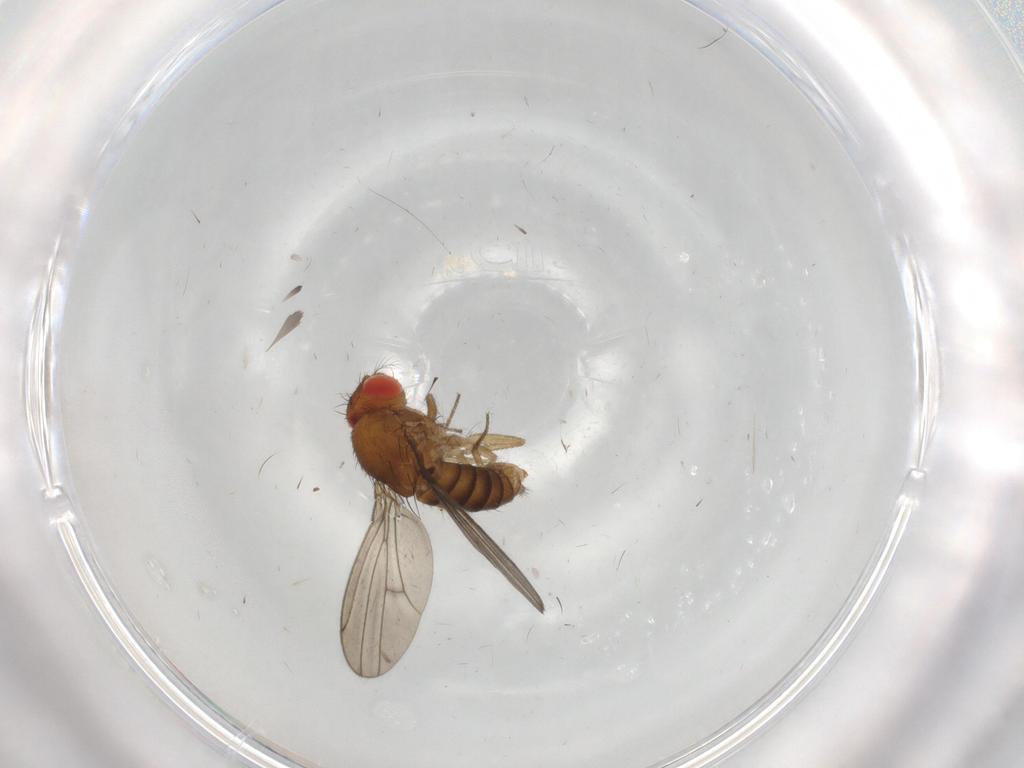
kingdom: Animalia
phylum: Arthropoda
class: Insecta
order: Diptera
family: Drosophilidae
